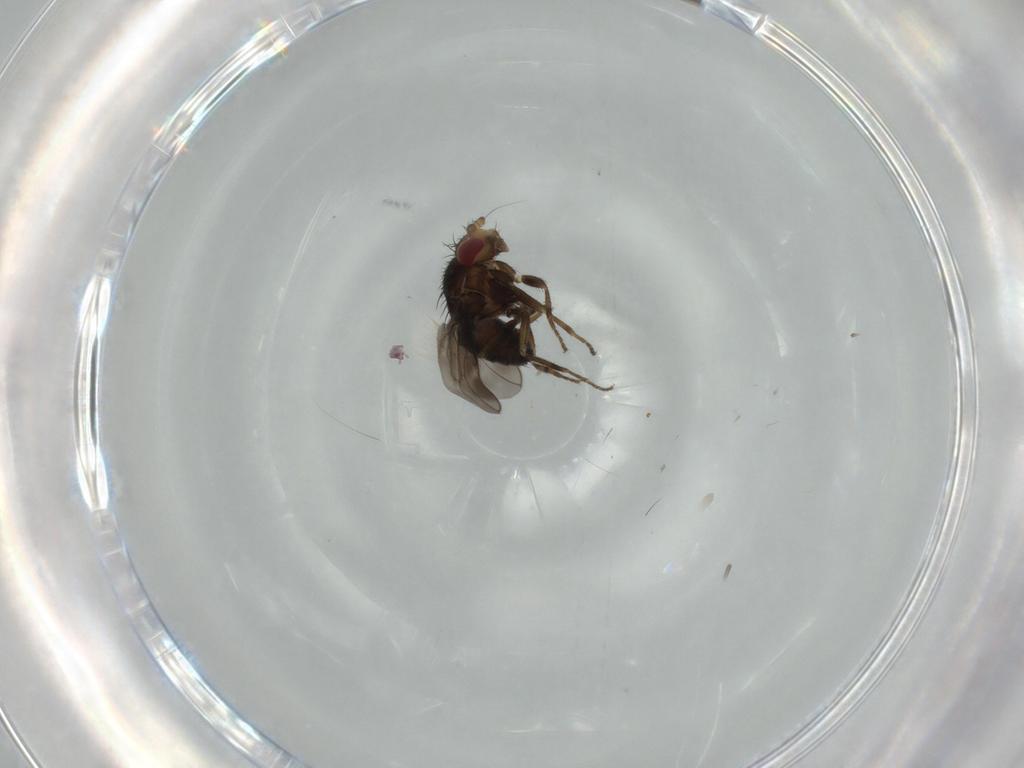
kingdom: Animalia
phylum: Arthropoda
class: Insecta
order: Diptera
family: Sphaeroceridae
